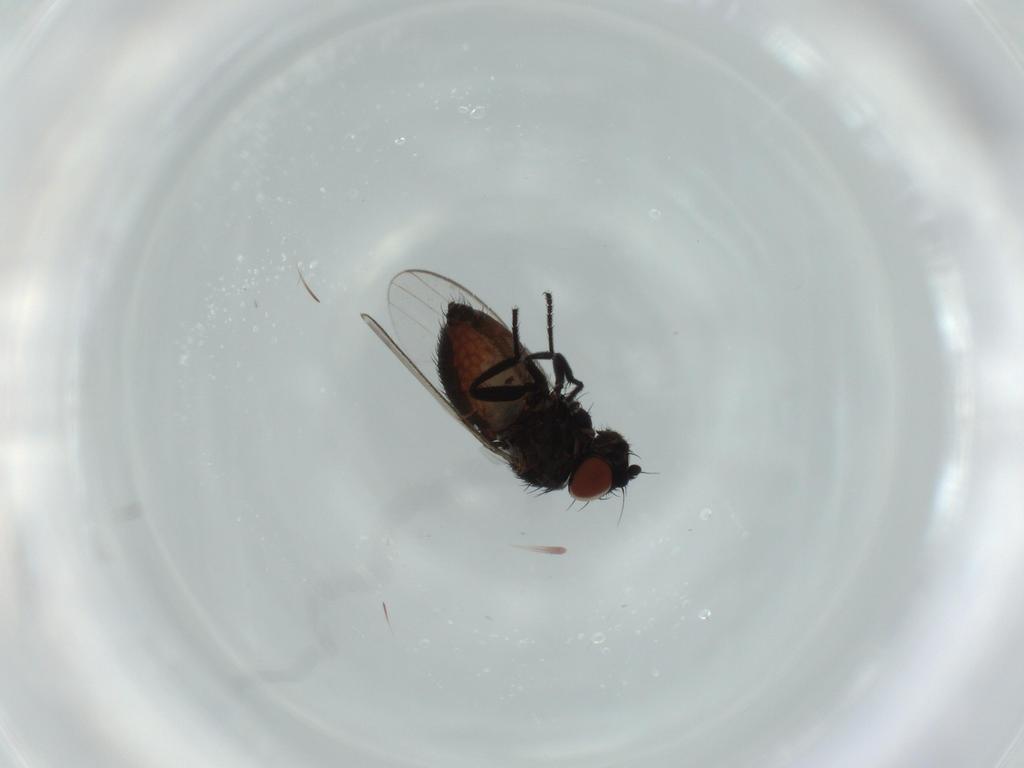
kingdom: Animalia
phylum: Arthropoda
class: Insecta
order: Diptera
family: Milichiidae
